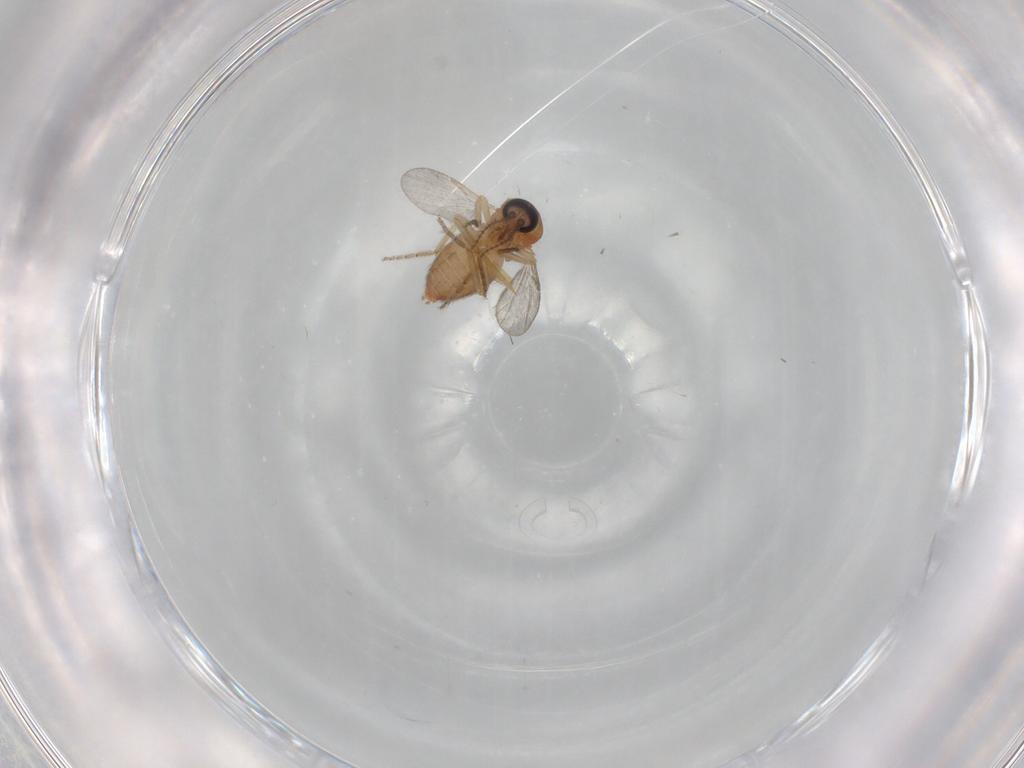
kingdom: Animalia
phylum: Arthropoda
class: Insecta
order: Diptera
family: Ceratopogonidae
